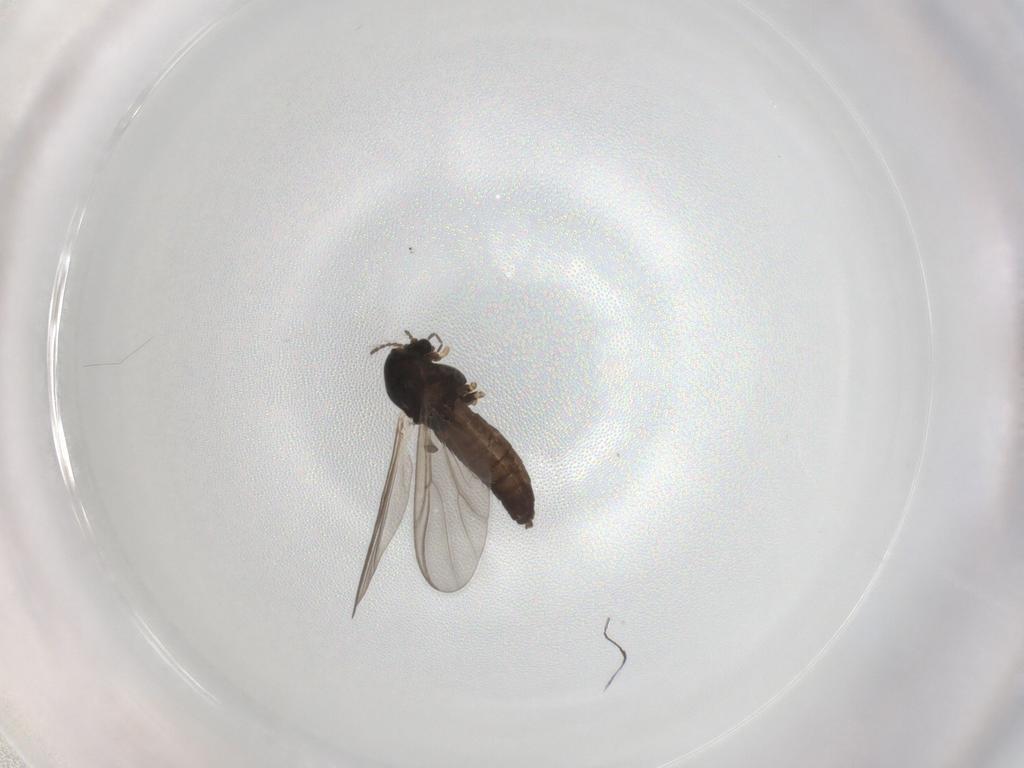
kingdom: Animalia
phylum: Arthropoda
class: Insecta
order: Diptera
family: Chironomidae
